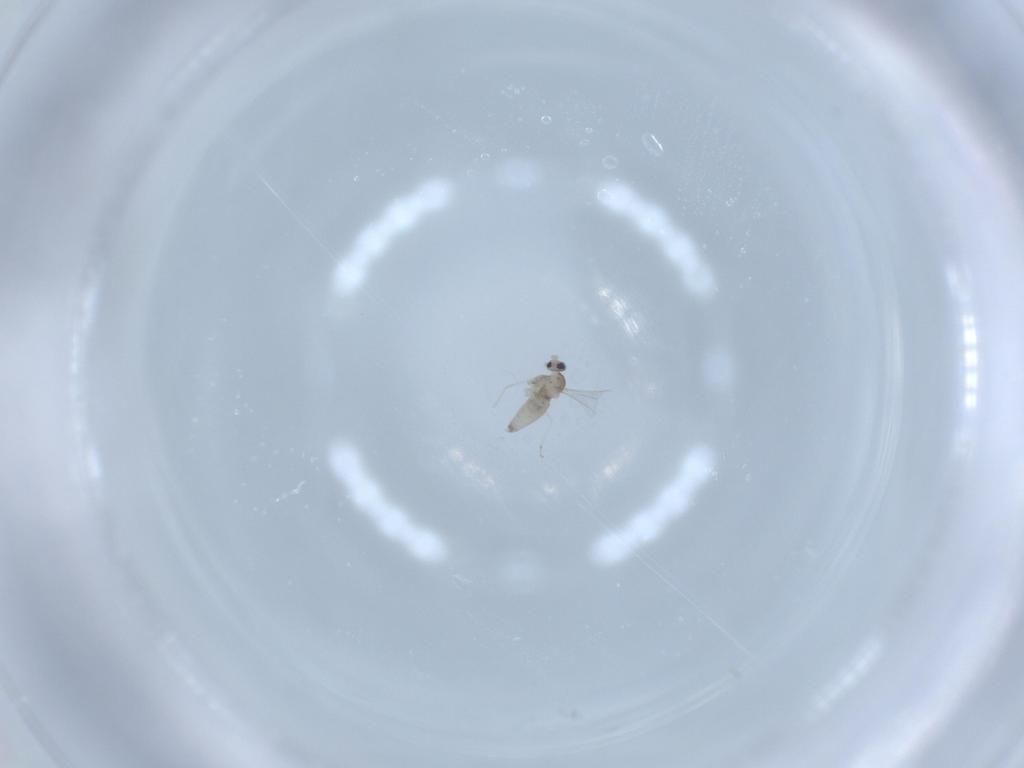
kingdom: Animalia
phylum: Arthropoda
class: Insecta
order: Diptera
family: Cecidomyiidae
